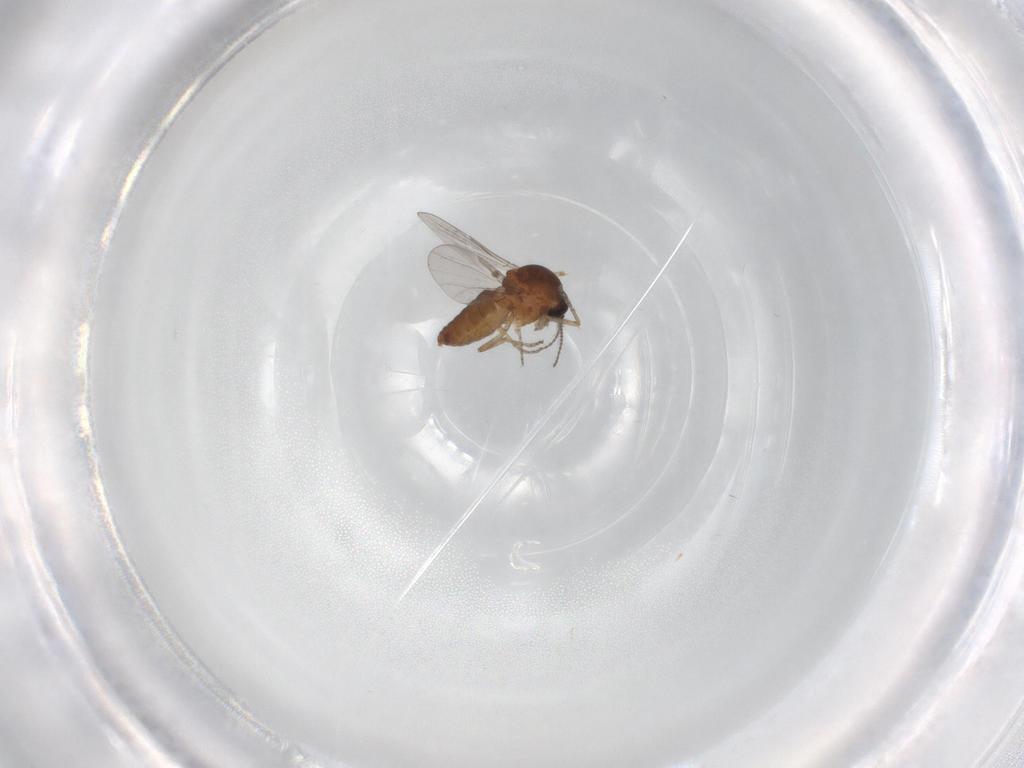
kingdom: Animalia
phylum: Arthropoda
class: Insecta
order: Diptera
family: Ceratopogonidae
